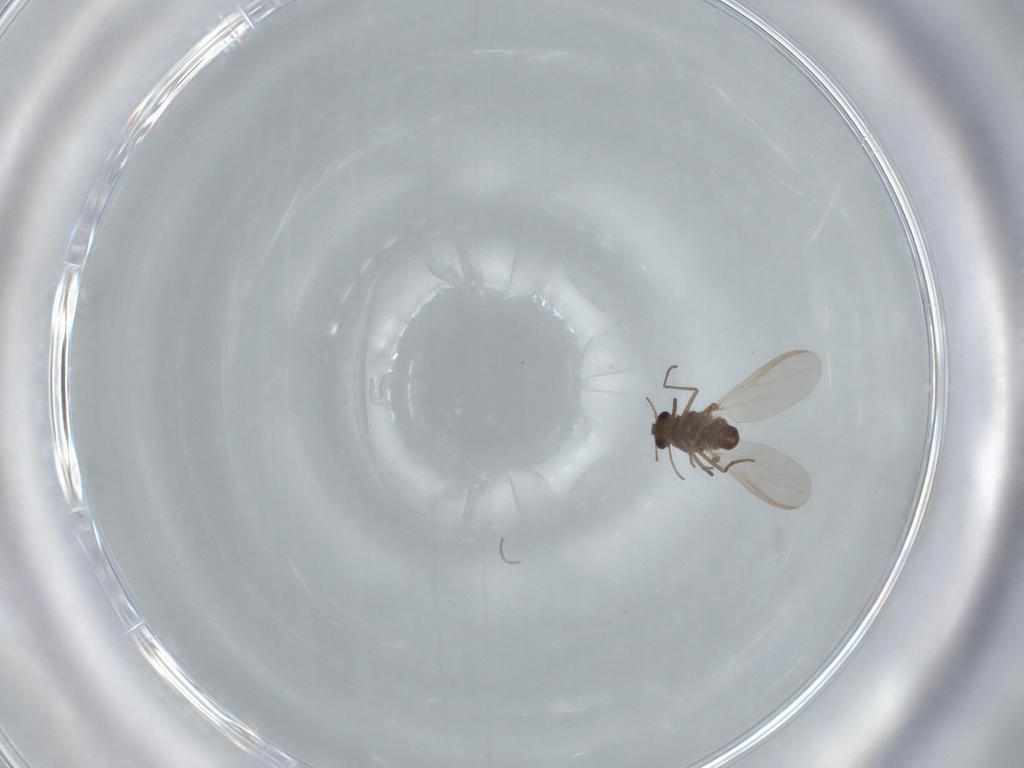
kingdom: Animalia
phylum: Arthropoda
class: Insecta
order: Diptera
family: Chironomidae
